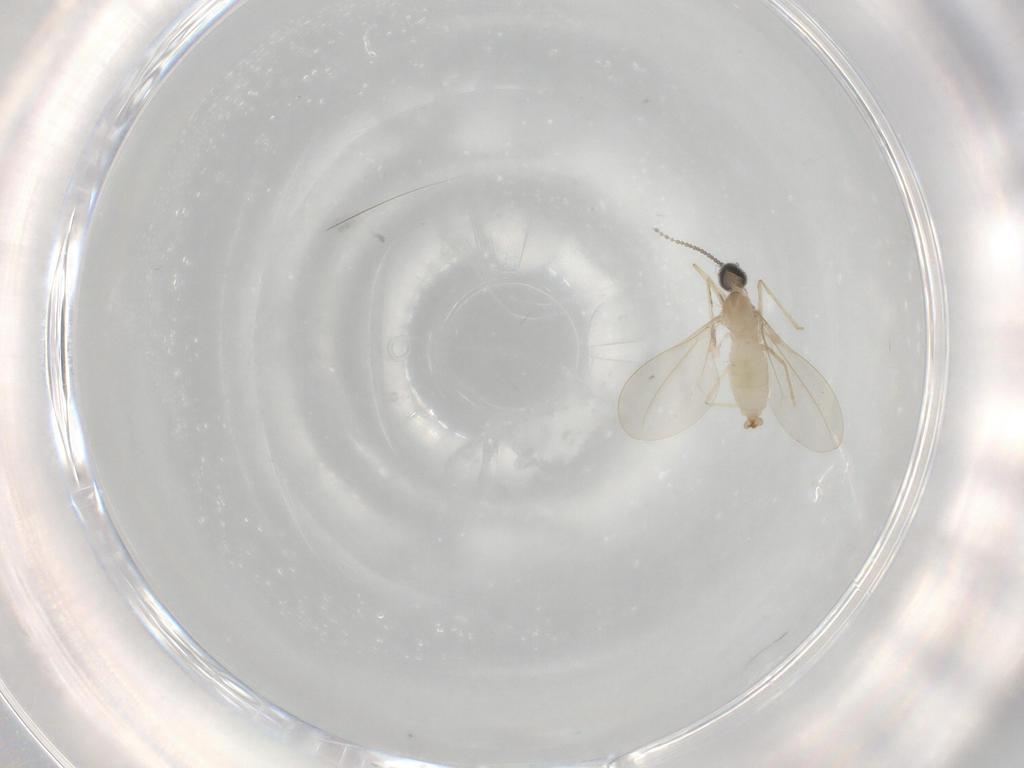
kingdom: Animalia
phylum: Arthropoda
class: Insecta
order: Diptera
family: Cecidomyiidae
